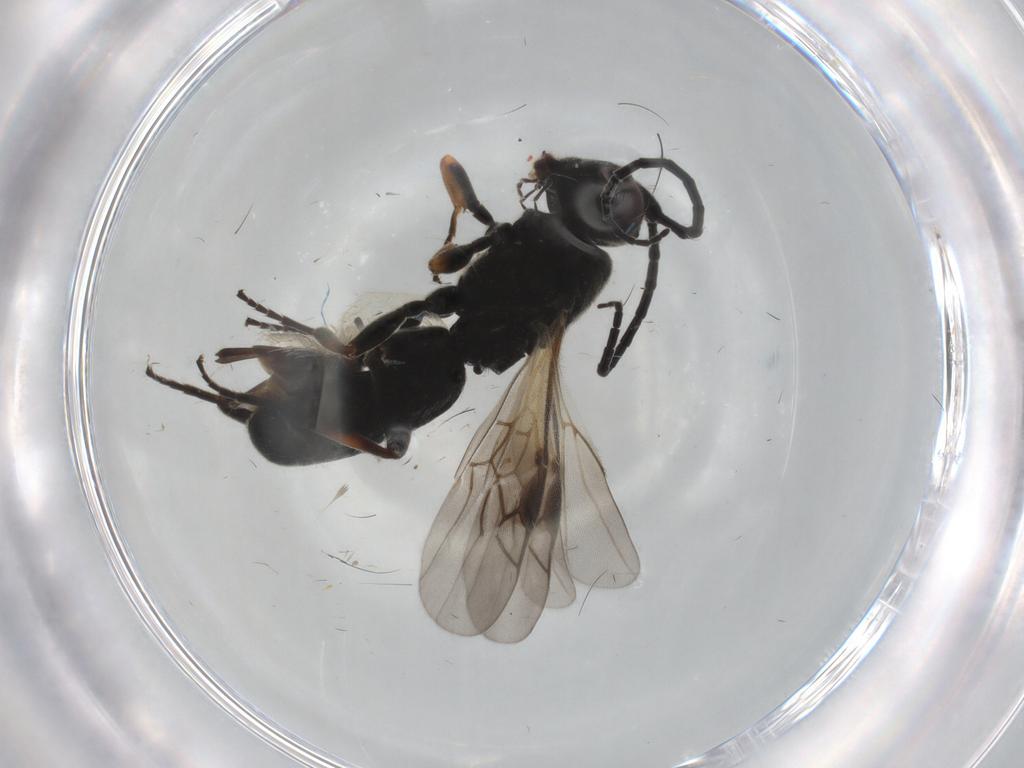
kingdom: Animalia
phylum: Arthropoda
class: Insecta
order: Hymenoptera
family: Braconidae
